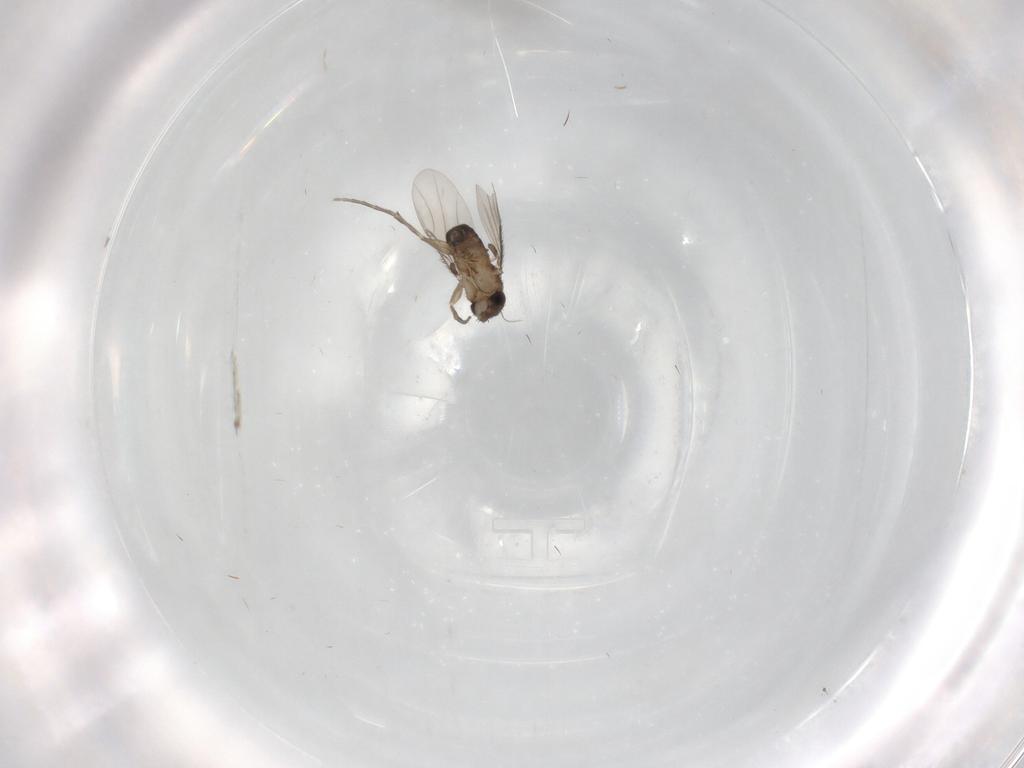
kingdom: Animalia
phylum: Arthropoda
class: Insecta
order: Diptera
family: Phoridae
